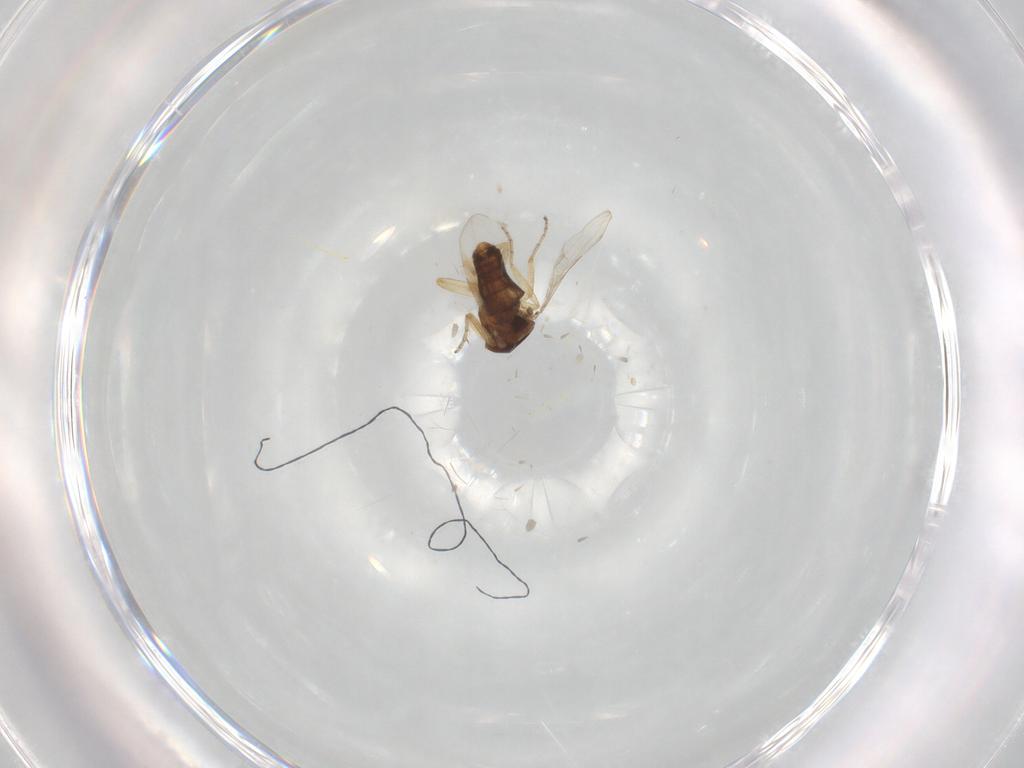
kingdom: Animalia
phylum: Arthropoda
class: Insecta
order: Diptera
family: Ceratopogonidae
